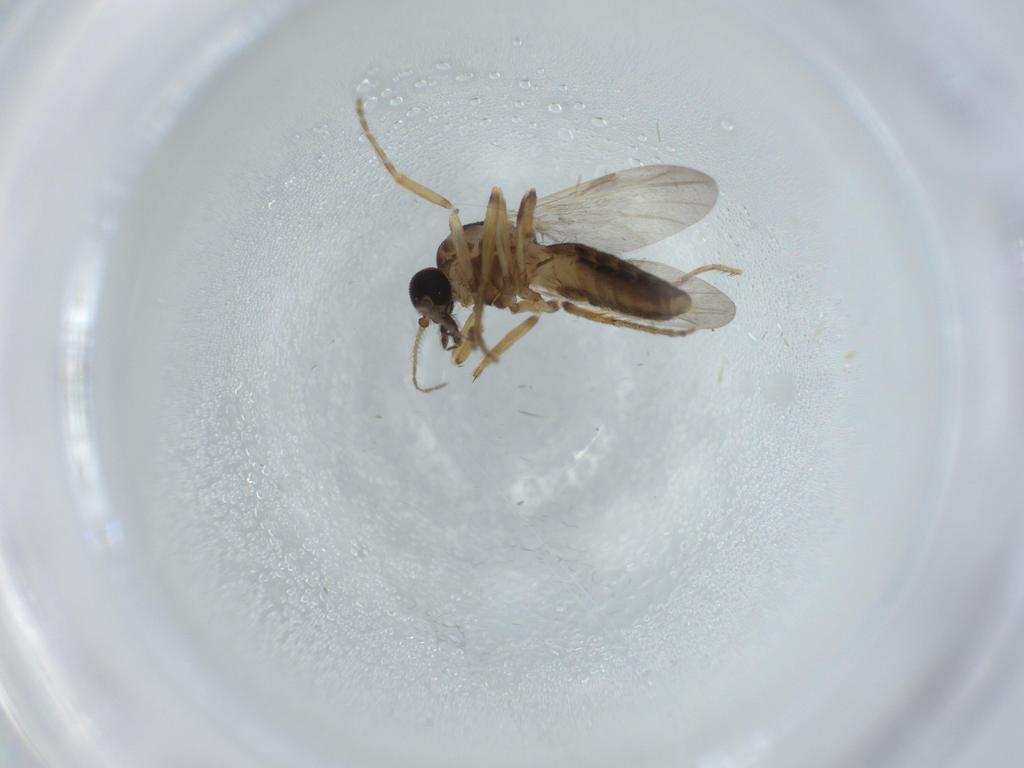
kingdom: Animalia
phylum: Arthropoda
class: Insecta
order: Diptera
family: Ceratopogonidae
